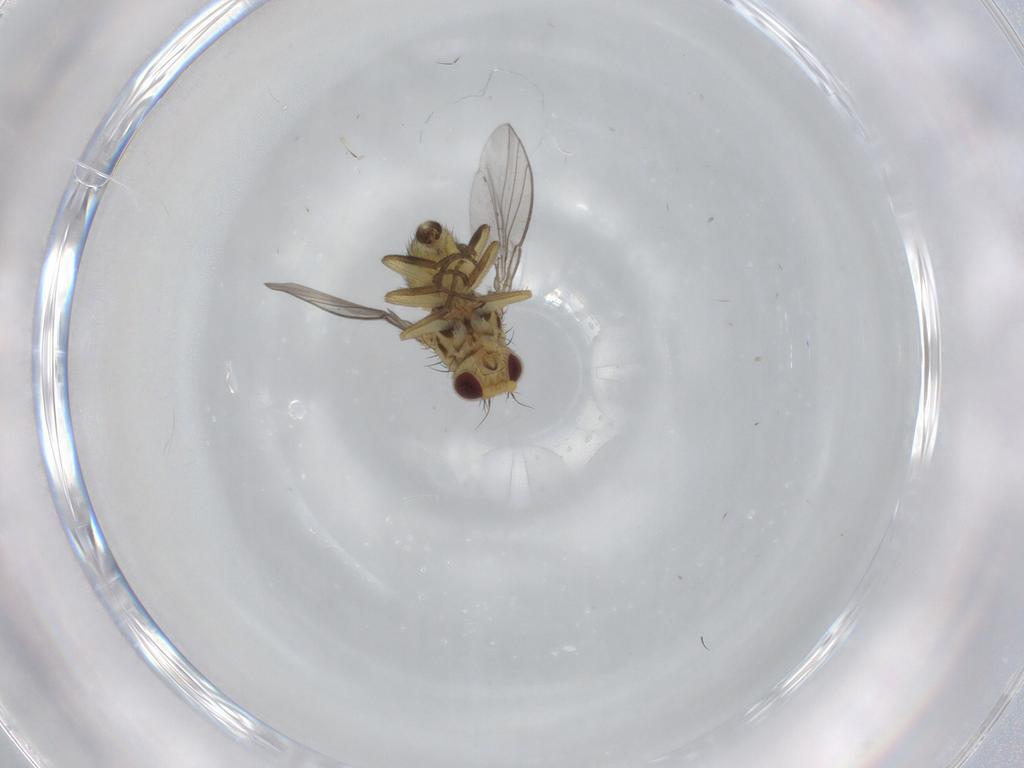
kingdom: Animalia
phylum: Arthropoda
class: Insecta
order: Diptera
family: Agromyzidae
